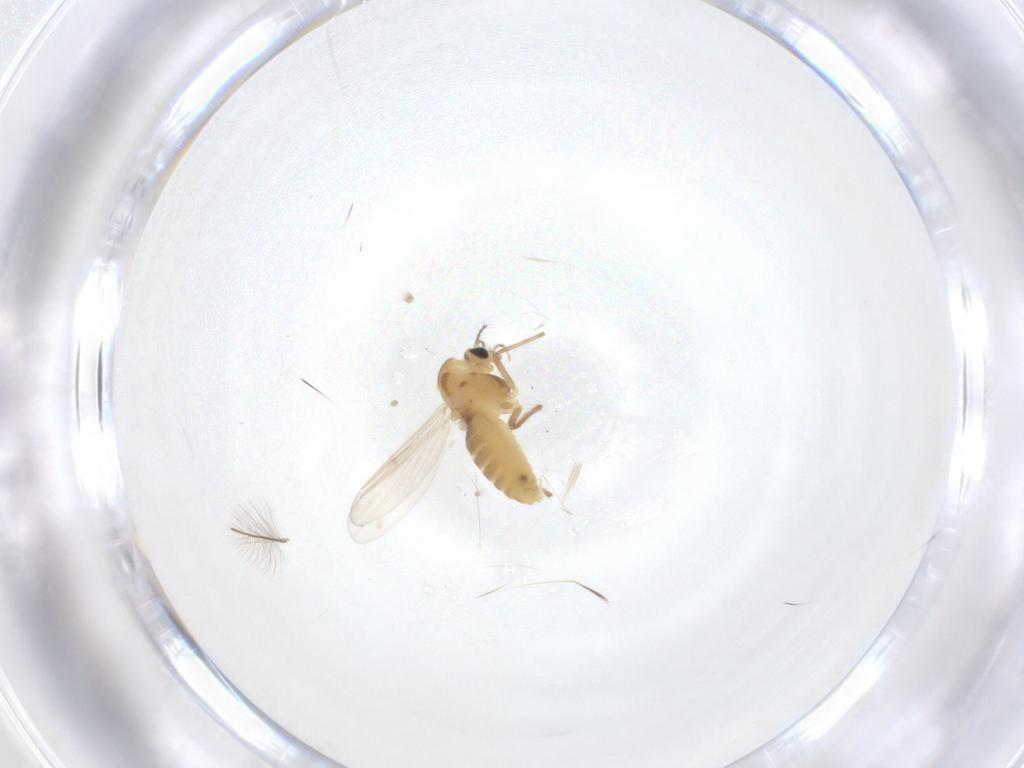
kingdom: Animalia
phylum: Arthropoda
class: Insecta
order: Diptera
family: Chironomidae
